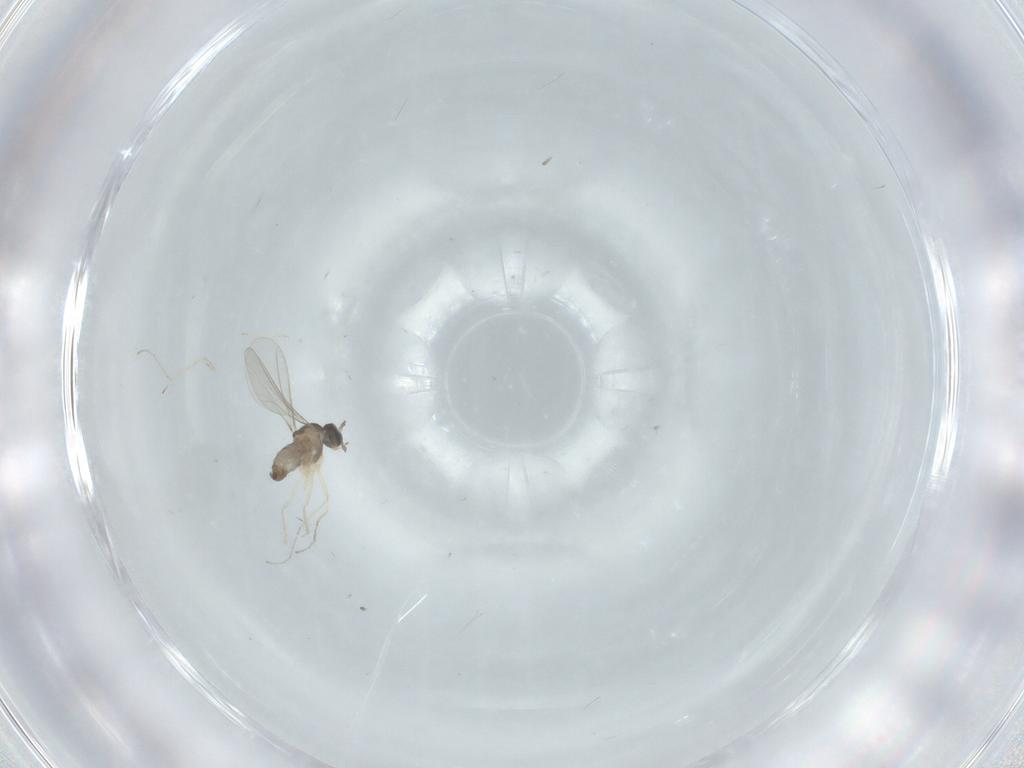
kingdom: Animalia
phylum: Arthropoda
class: Insecta
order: Diptera
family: Cecidomyiidae
